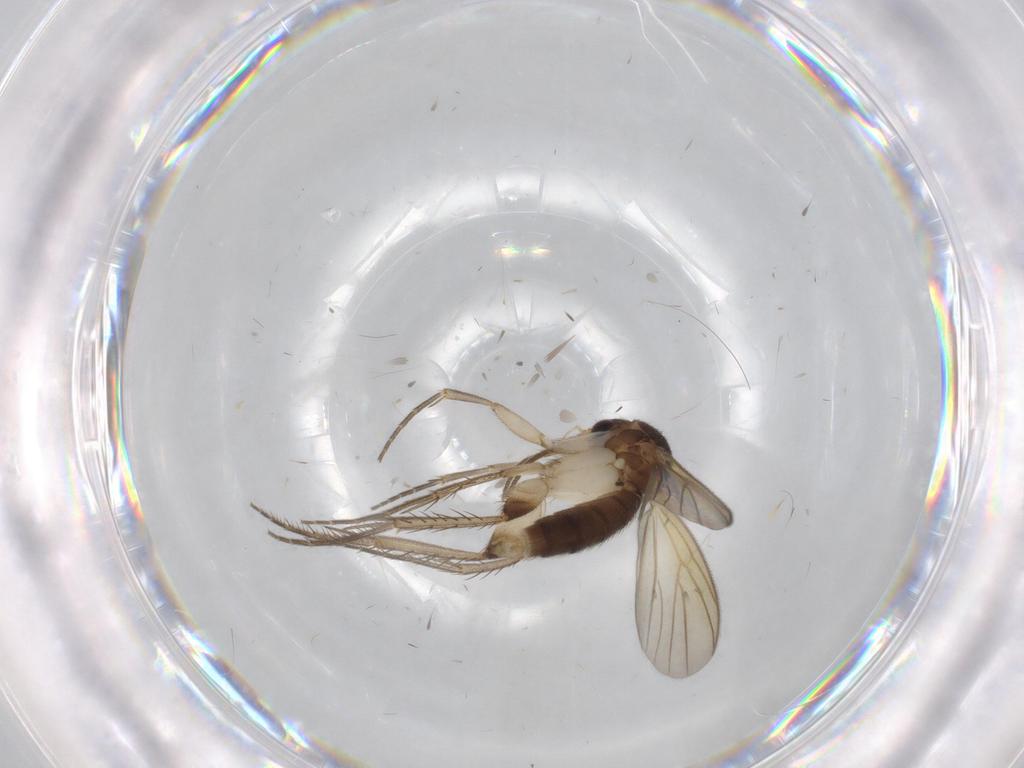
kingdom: Animalia
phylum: Arthropoda
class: Insecta
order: Diptera
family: Mycetophilidae
